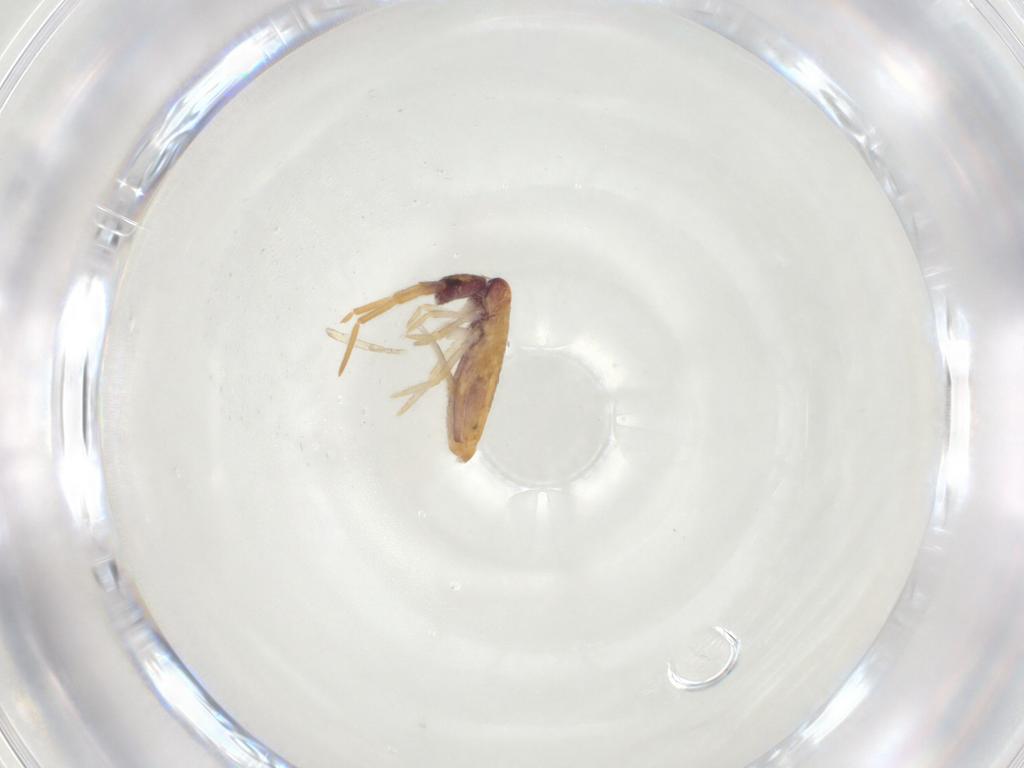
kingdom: Animalia
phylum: Arthropoda
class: Collembola
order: Entomobryomorpha
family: Entomobryidae
